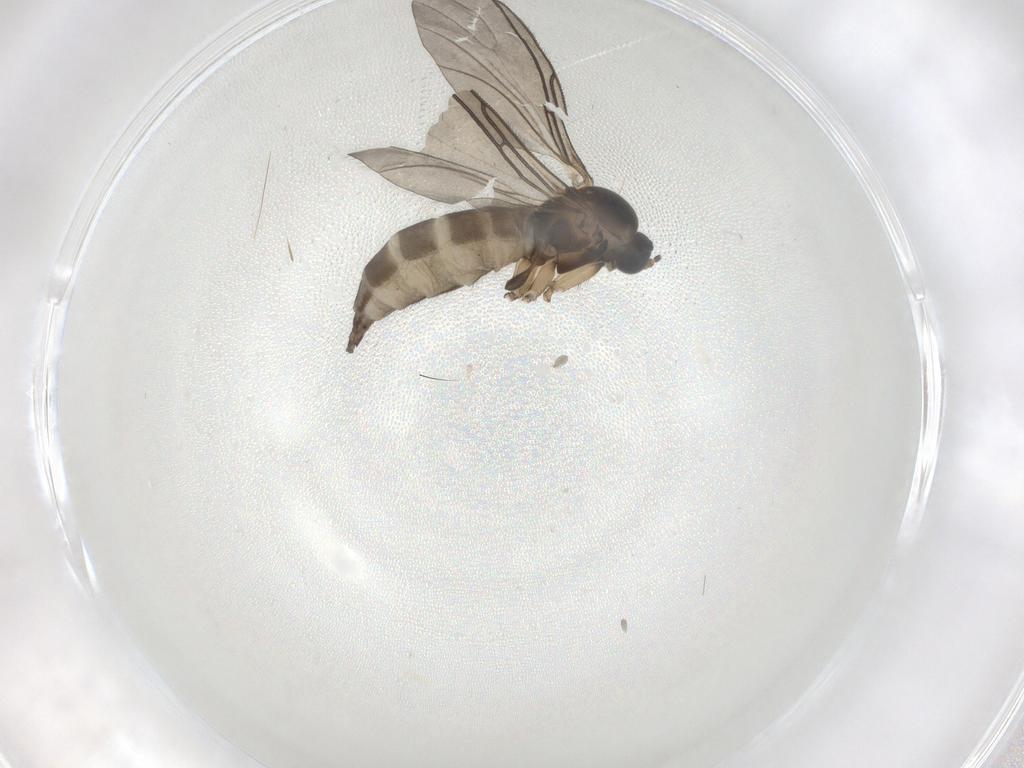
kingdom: Animalia
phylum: Arthropoda
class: Insecta
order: Diptera
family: Sciaridae
